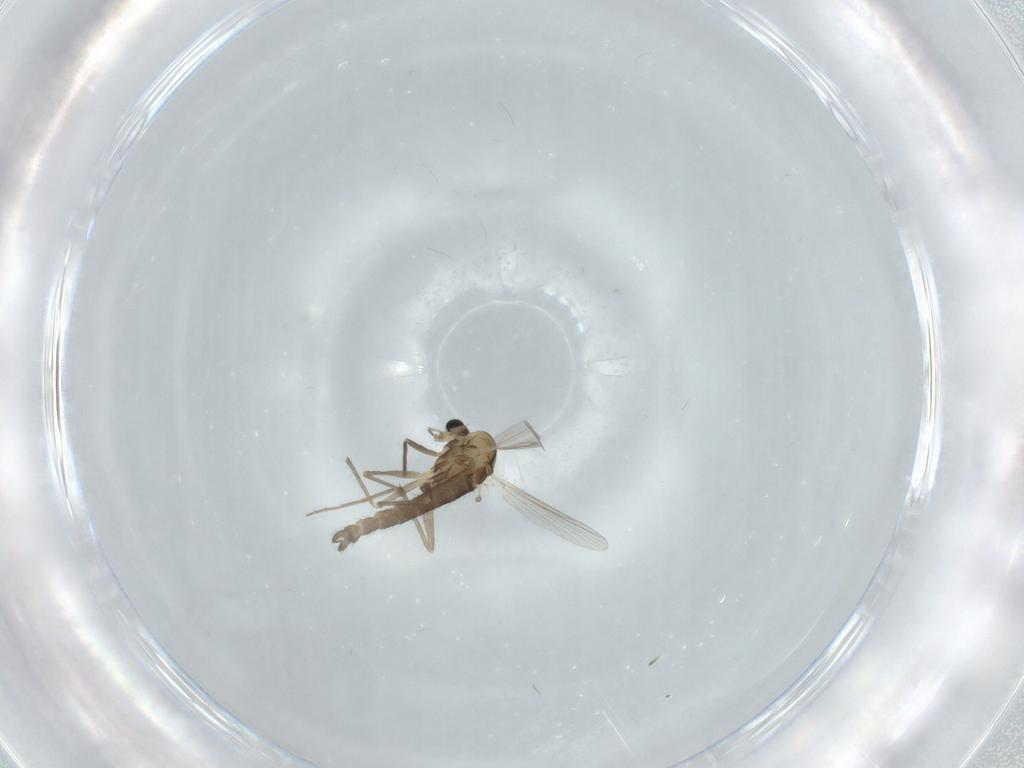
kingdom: Animalia
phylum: Arthropoda
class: Insecta
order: Diptera
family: Chironomidae
